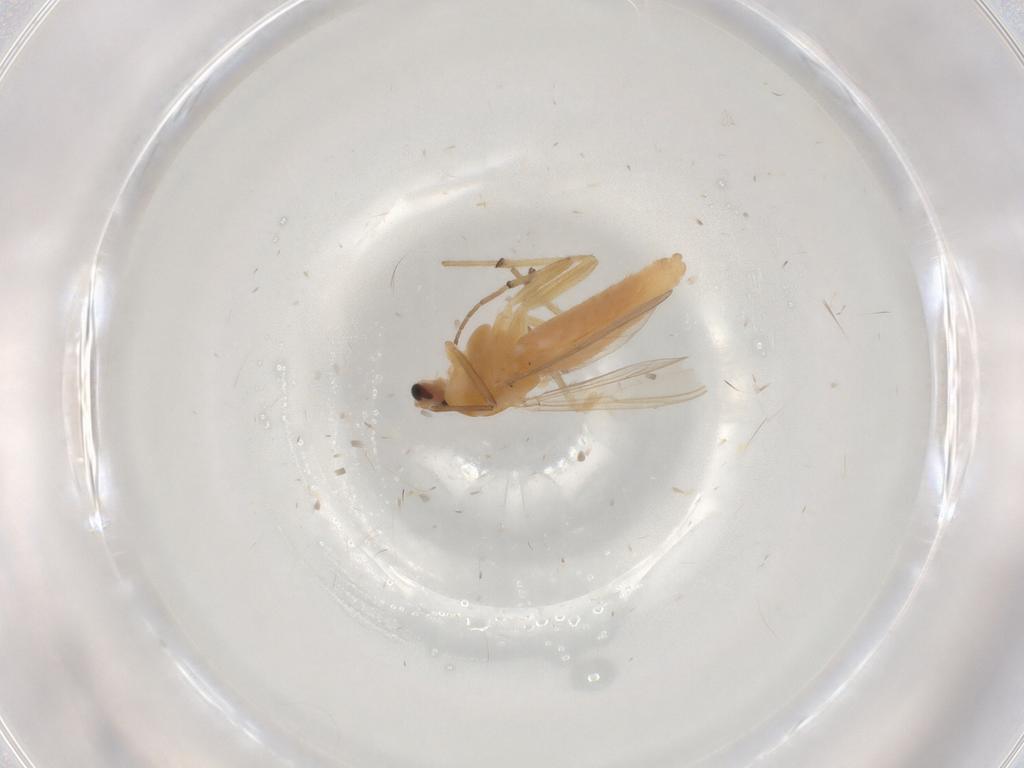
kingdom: Animalia
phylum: Arthropoda
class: Insecta
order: Diptera
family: Chironomidae
